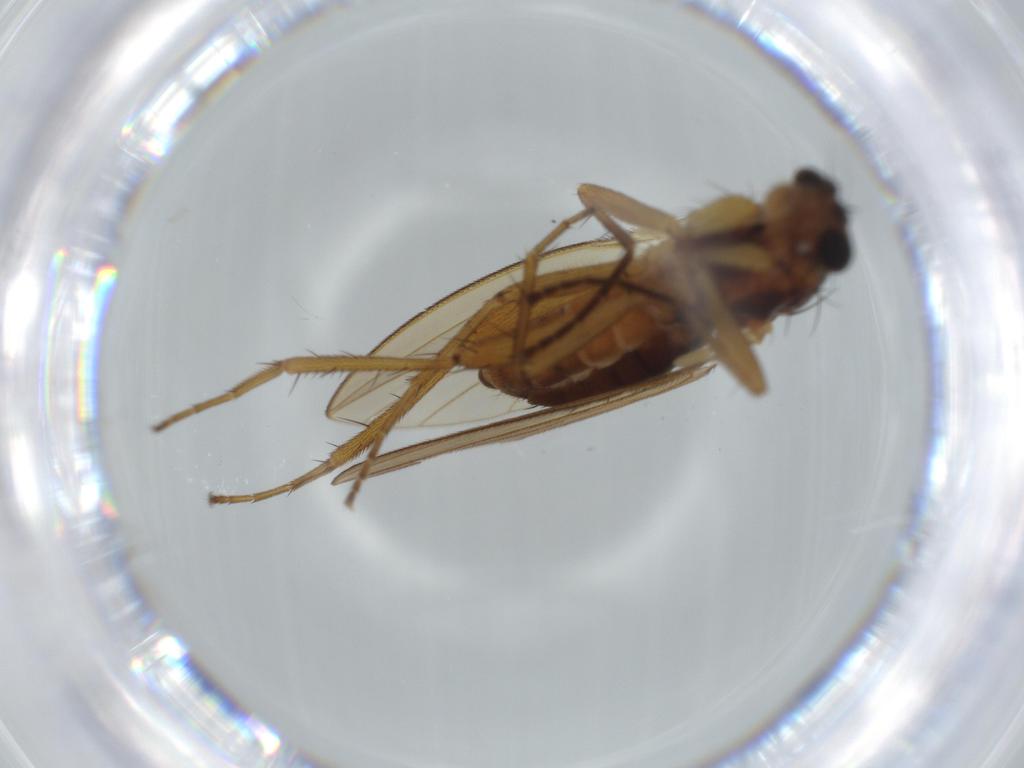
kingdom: Animalia
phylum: Arthropoda
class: Insecta
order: Diptera
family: Lonchopteridae
